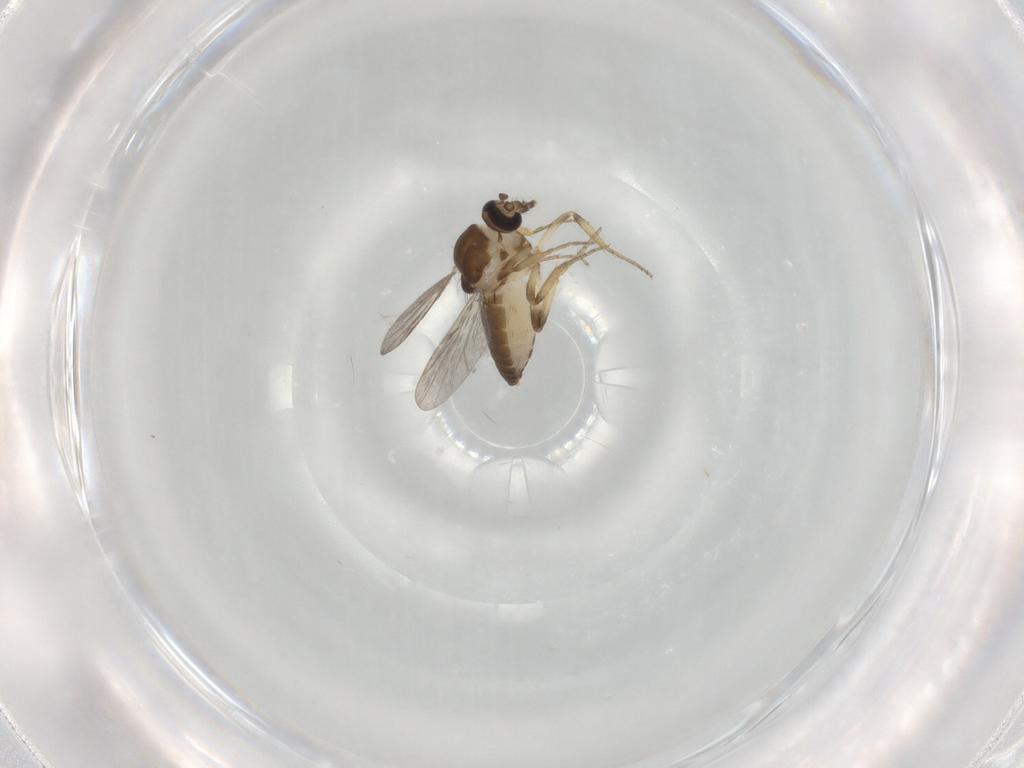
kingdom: Animalia
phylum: Arthropoda
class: Insecta
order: Diptera
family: Ceratopogonidae
